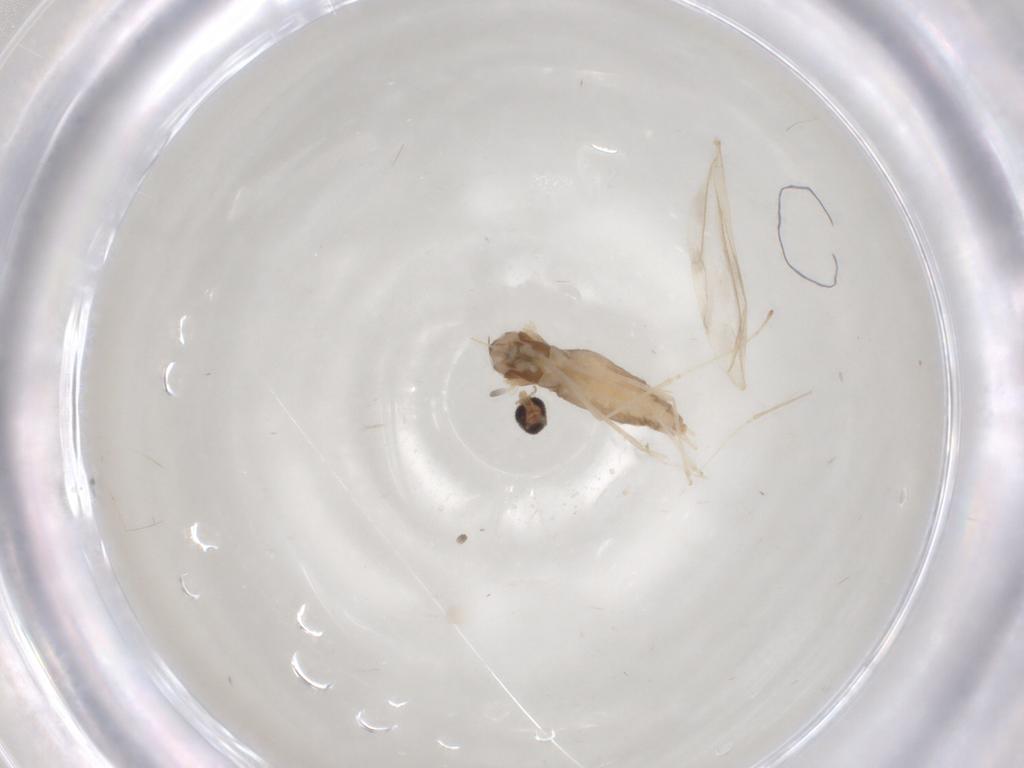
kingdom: Animalia
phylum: Arthropoda
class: Insecta
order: Diptera
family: Cecidomyiidae
